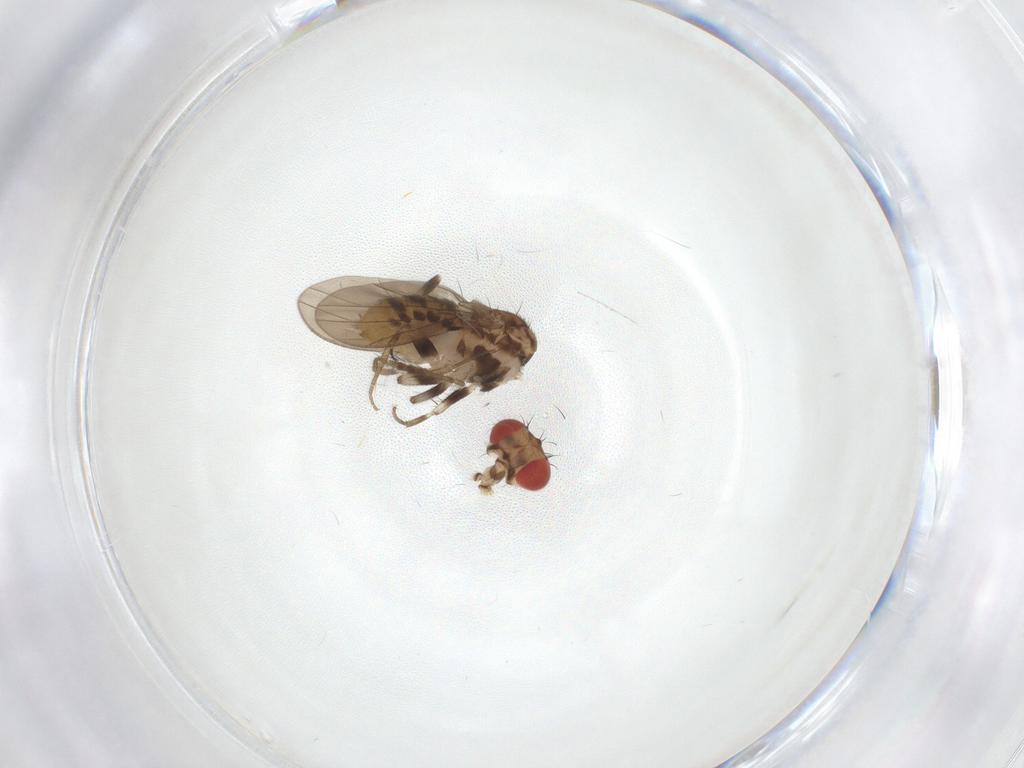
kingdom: Animalia
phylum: Arthropoda
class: Insecta
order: Diptera
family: Drosophilidae
